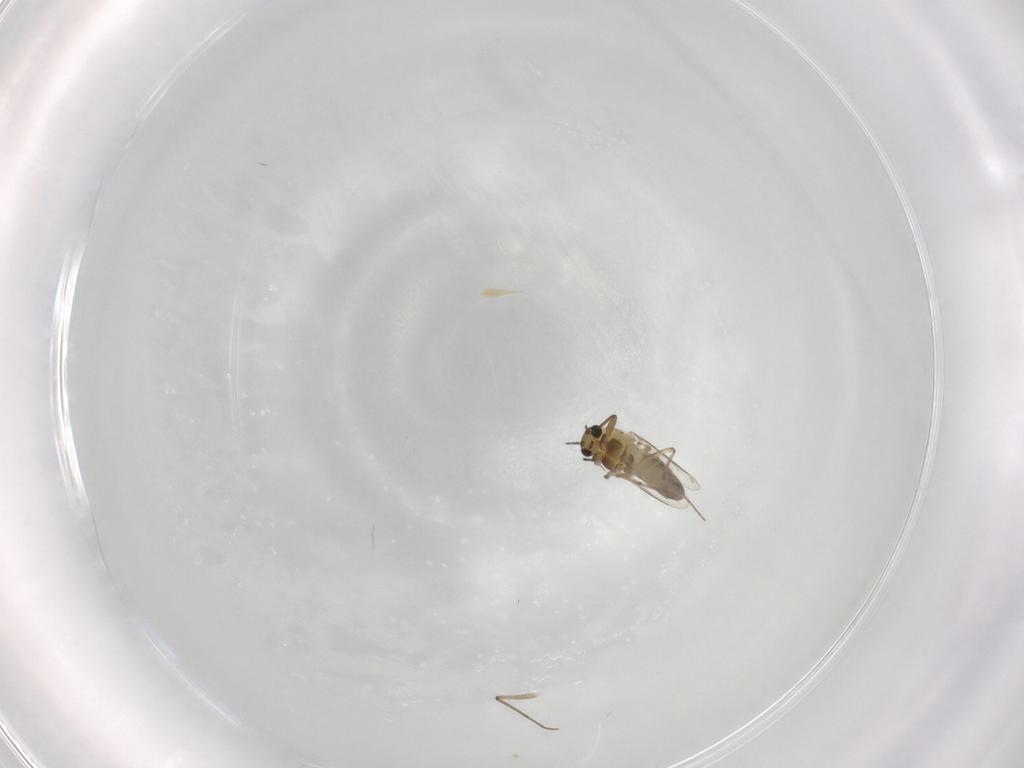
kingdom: Animalia
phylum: Arthropoda
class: Insecta
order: Diptera
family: Chironomidae
